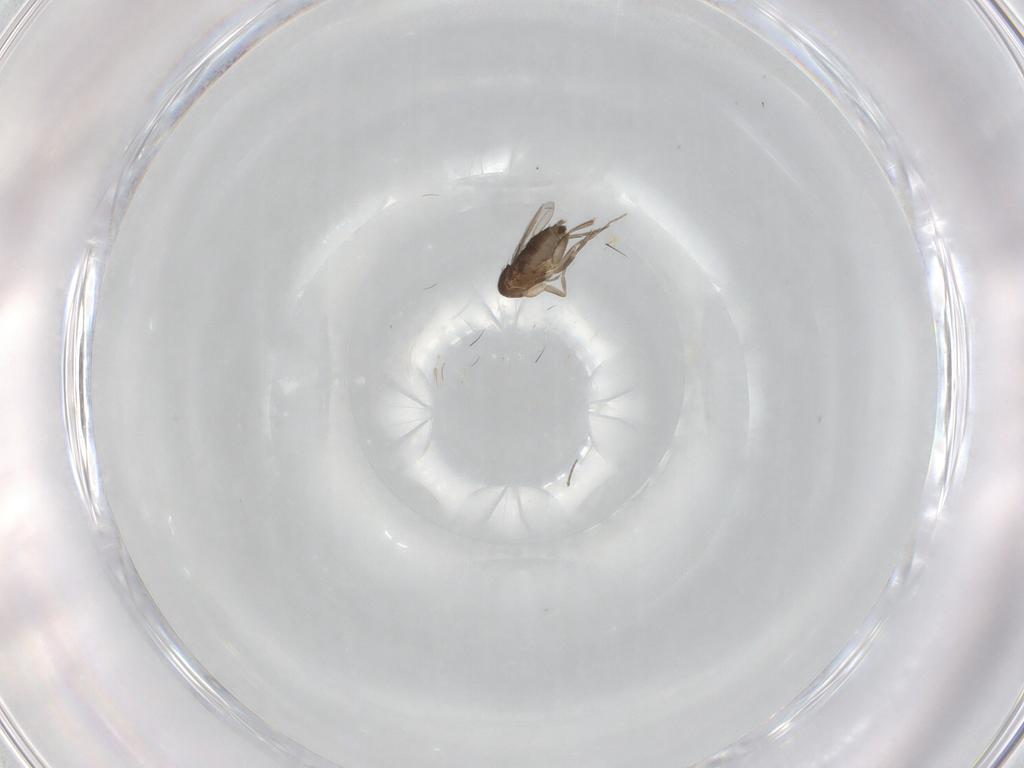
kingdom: Animalia
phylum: Arthropoda
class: Insecta
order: Diptera
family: Phoridae
